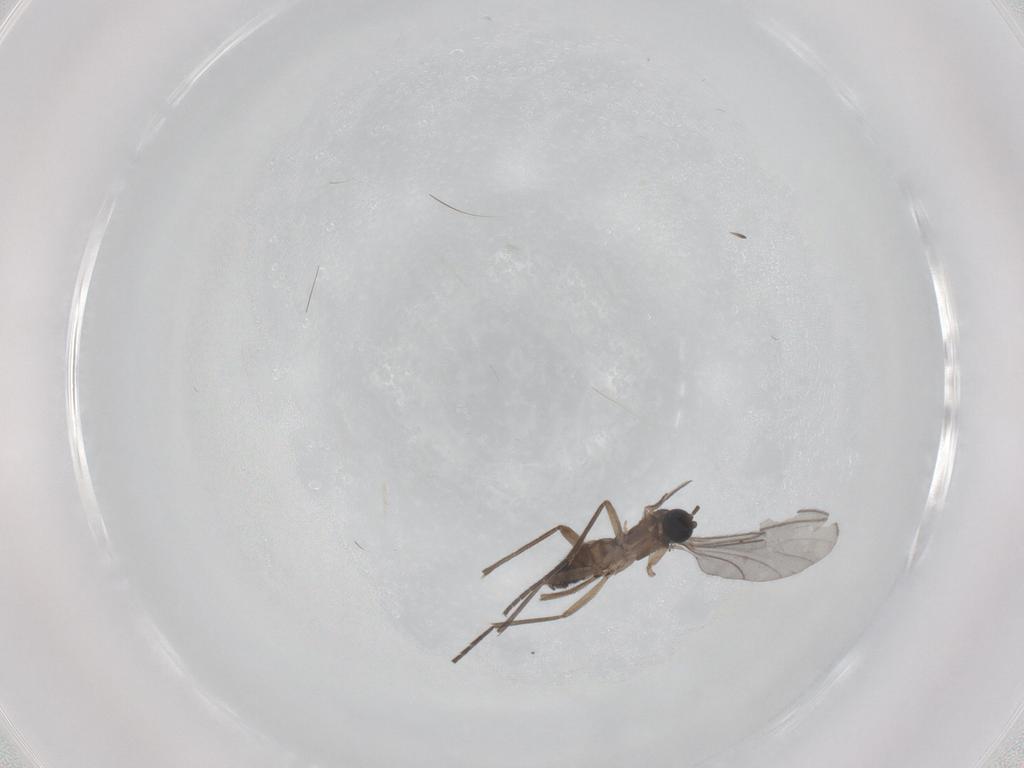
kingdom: Animalia
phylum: Arthropoda
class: Insecta
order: Diptera
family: Sciaridae
